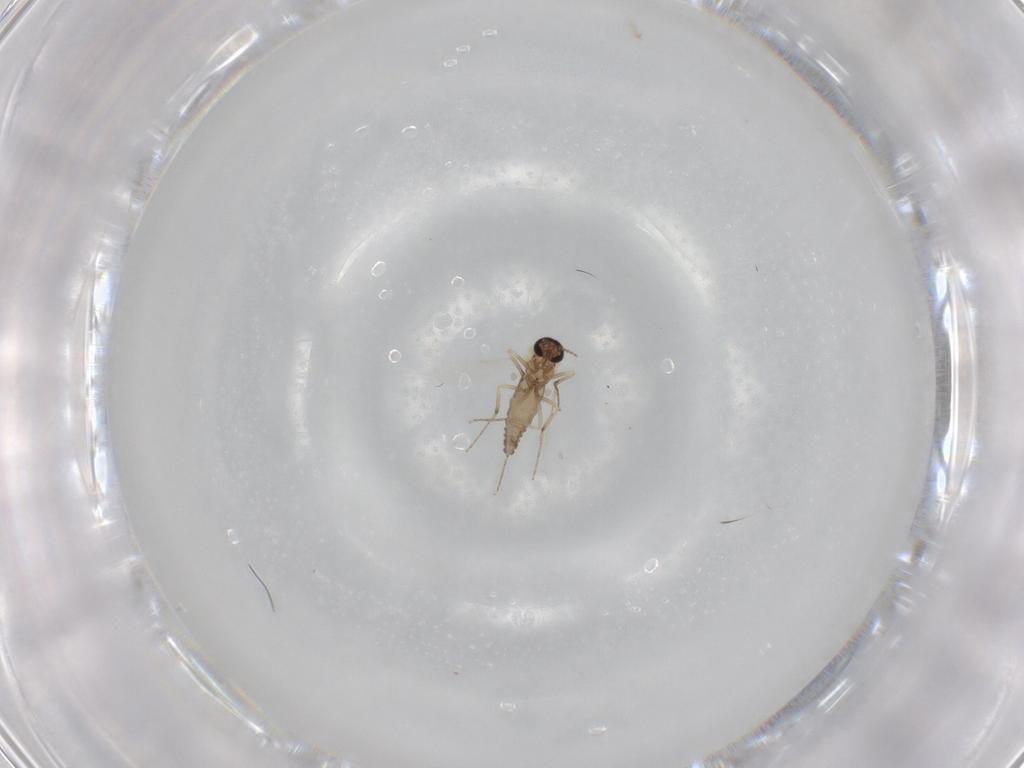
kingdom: Animalia
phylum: Arthropoda
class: Insecta
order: Diptera
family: Ceratopogonidae
